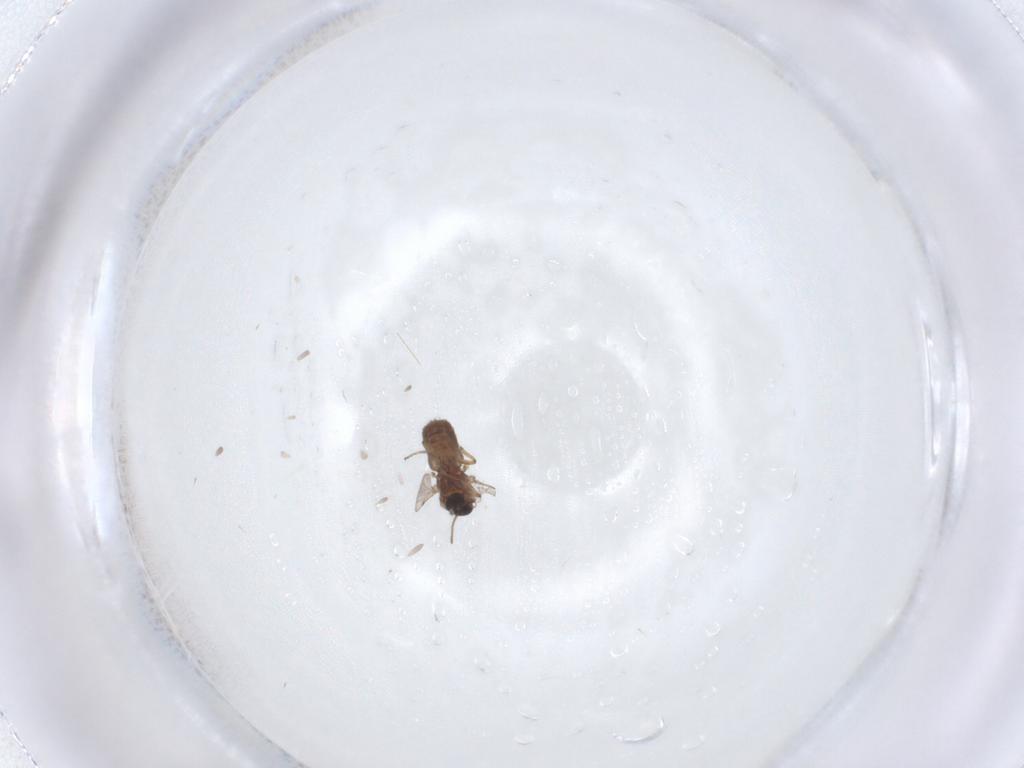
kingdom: Animalia
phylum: Arthropoda
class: Insecta
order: Diptera
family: Ceratopogonidae
